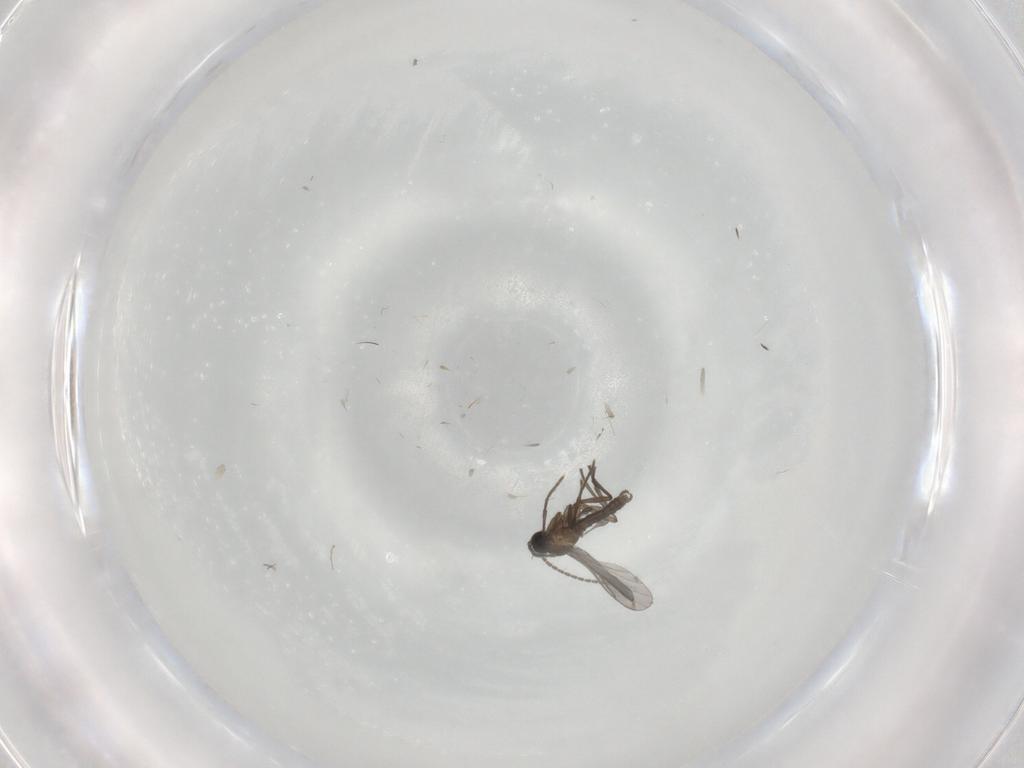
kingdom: Animalia
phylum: Arthropoda
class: Insecta
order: Diptera
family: Sciaridae
